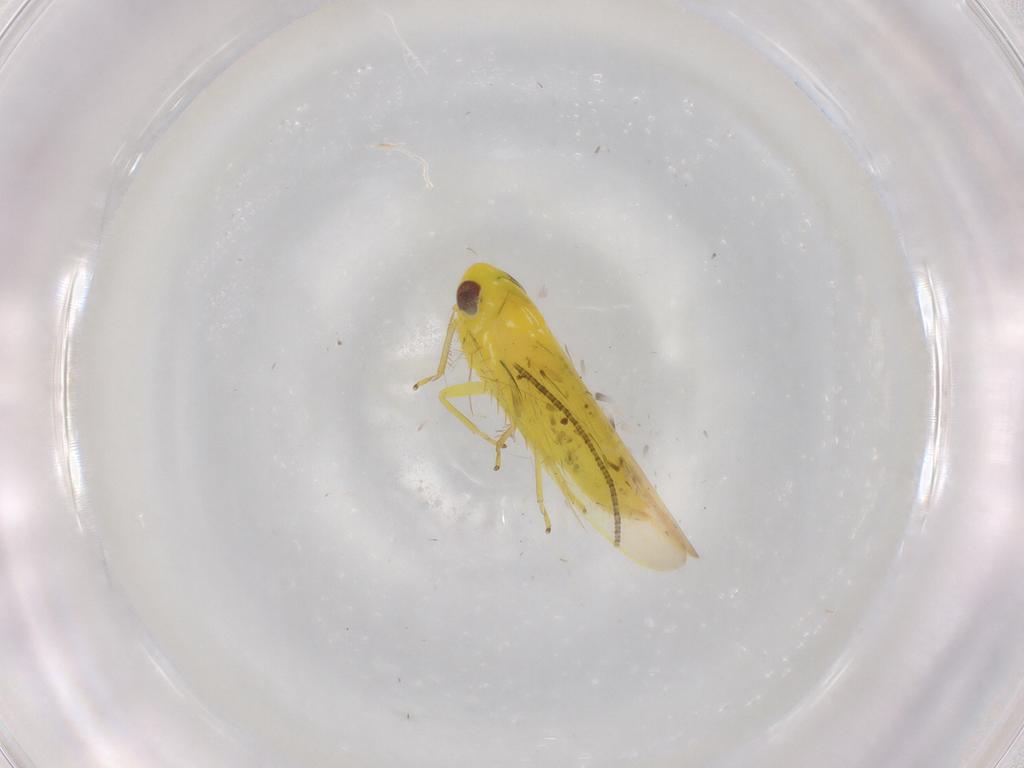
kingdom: Animalia
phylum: Arthropoda
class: Insecta
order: Hemiptera
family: Cicadellidae
